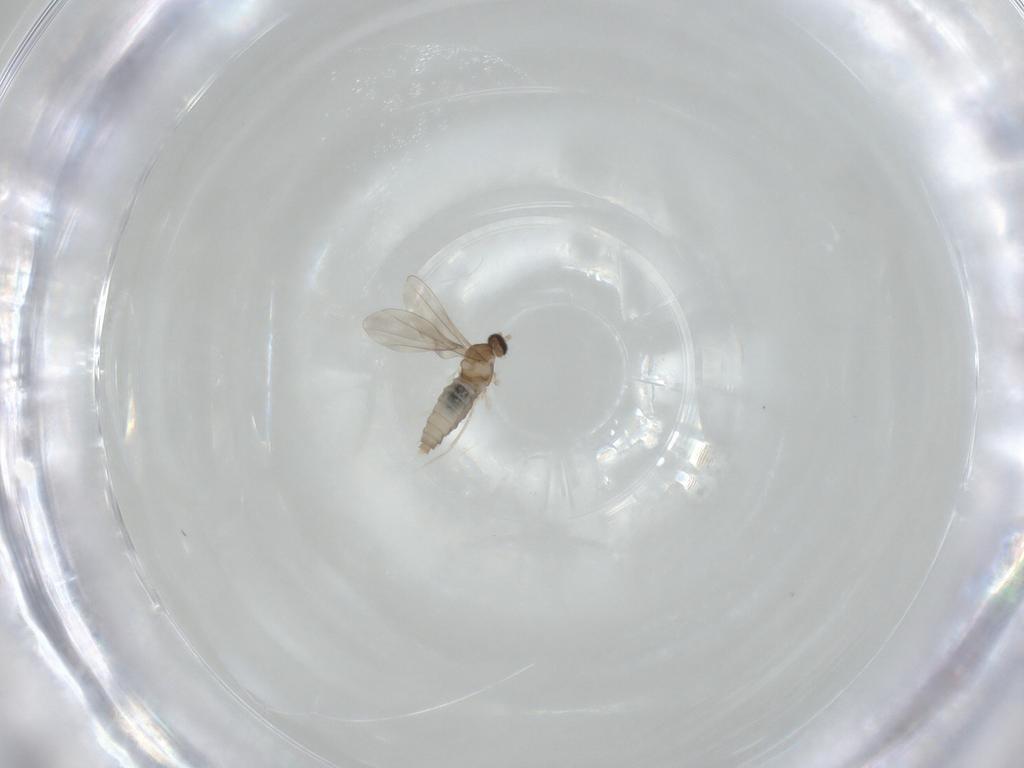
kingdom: Animalia
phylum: Arthropoda
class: Insecta
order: Diptera
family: Cecidomyiidae
